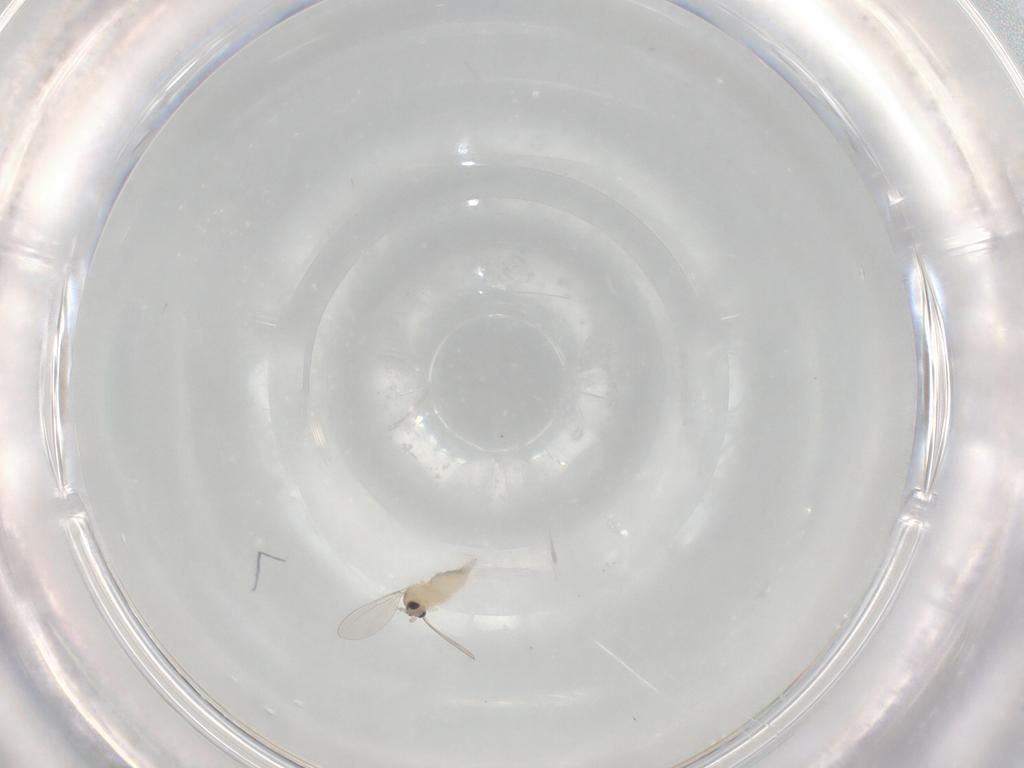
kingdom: Animalia
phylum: Arthropoda
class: Insecta
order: Diptera
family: Cecidomyiidae
